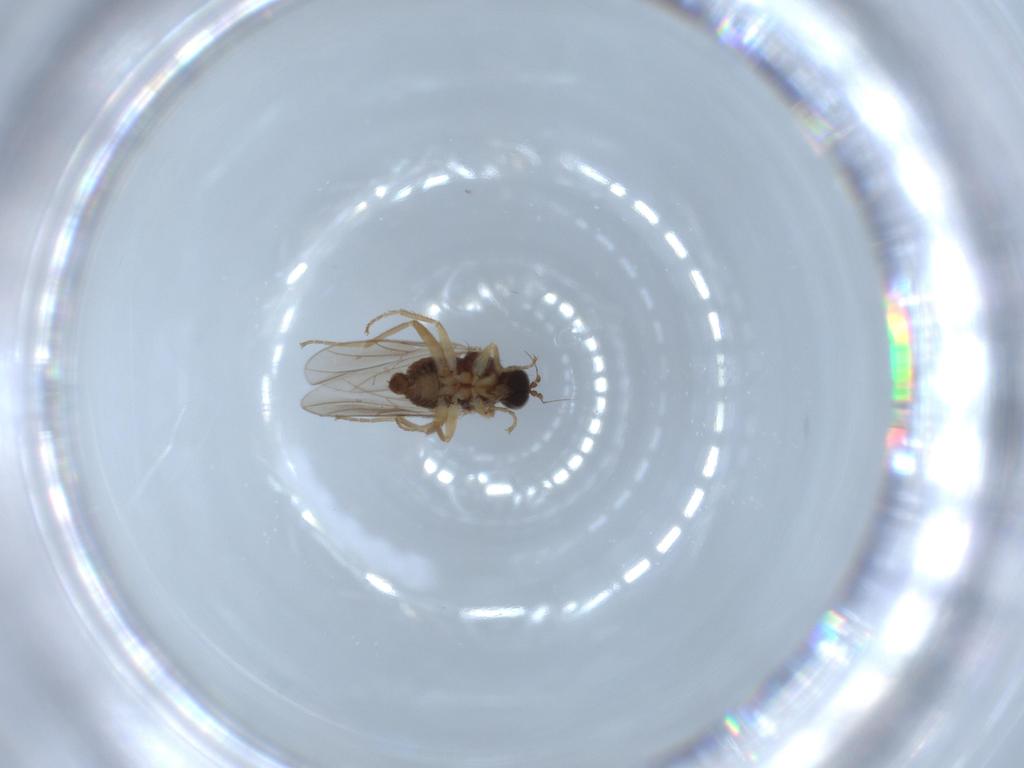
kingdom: Animalia
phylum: Arthropoda
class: Insecta
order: Diptera
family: Hybotidae
